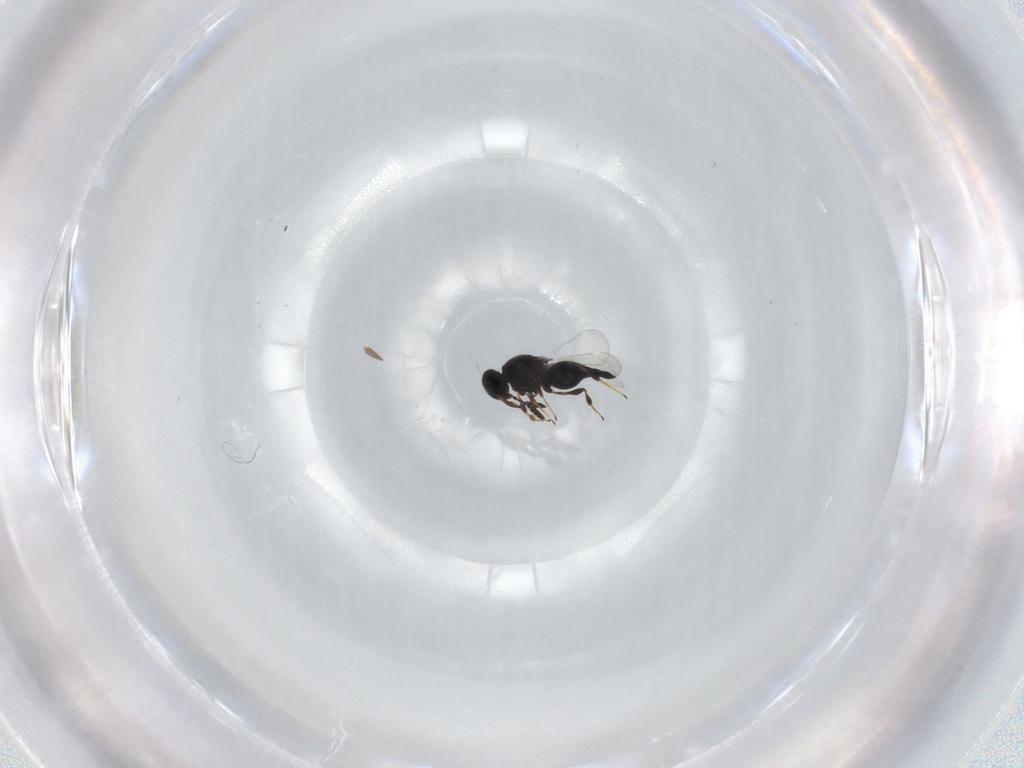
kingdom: Animalia
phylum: Arthropoda
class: Insecta
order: Hymenoptera
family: Platygastridae
